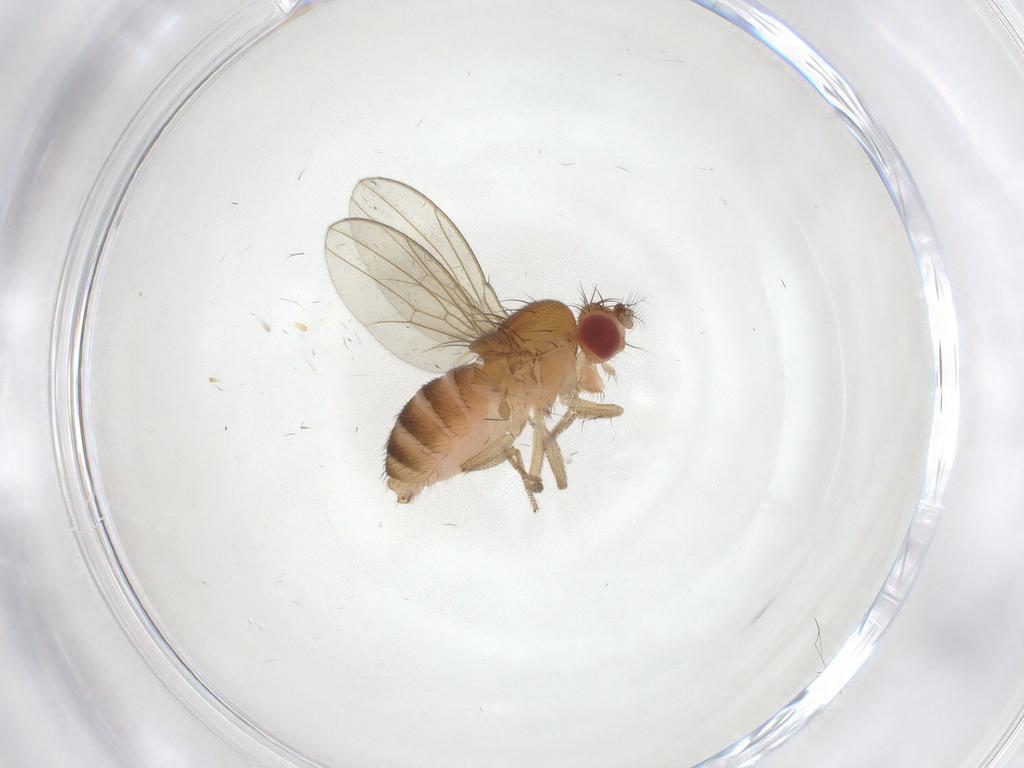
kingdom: Animalia
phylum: Arthropoda
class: Insecta
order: Diptera
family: Drosophilidae
